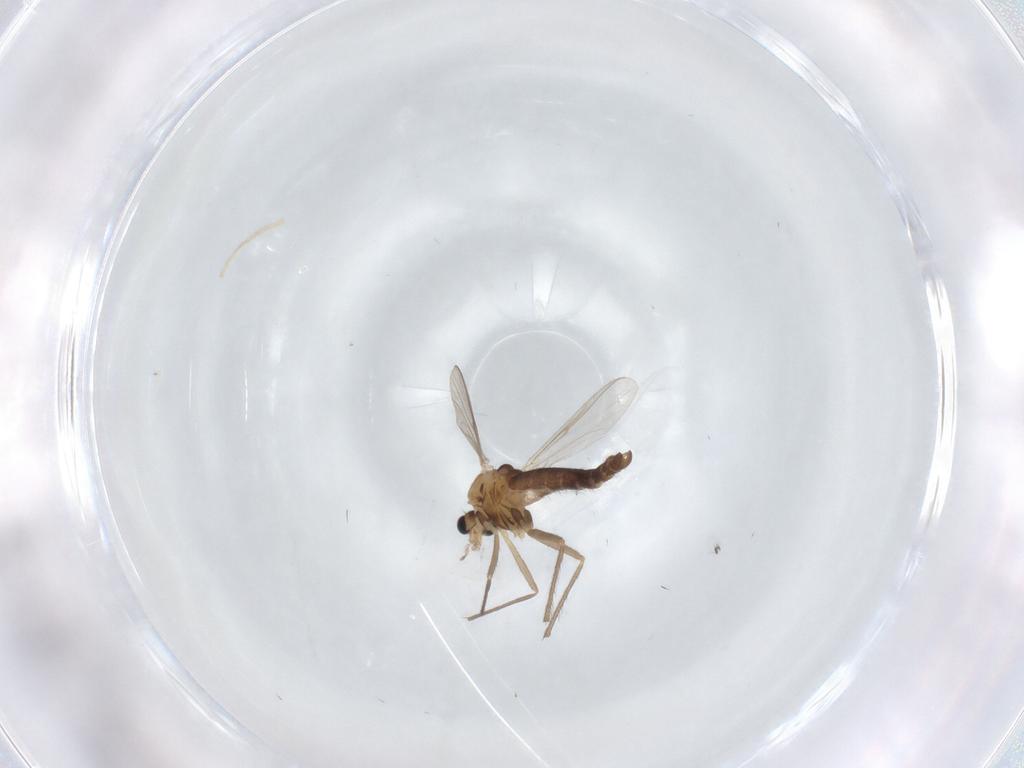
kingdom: Animalia
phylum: Arthropoda
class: Insecta
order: Diptera
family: Chironomidae
